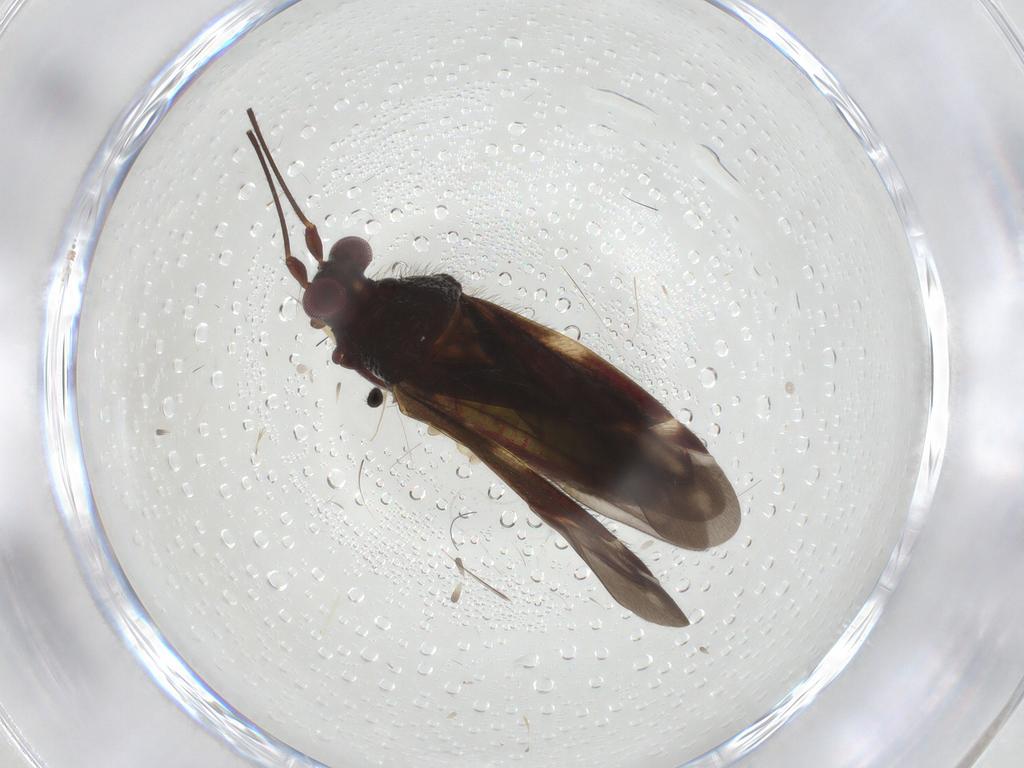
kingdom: Animalia
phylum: Arthropoda
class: Insecta
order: Hemiptera
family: Miridae
